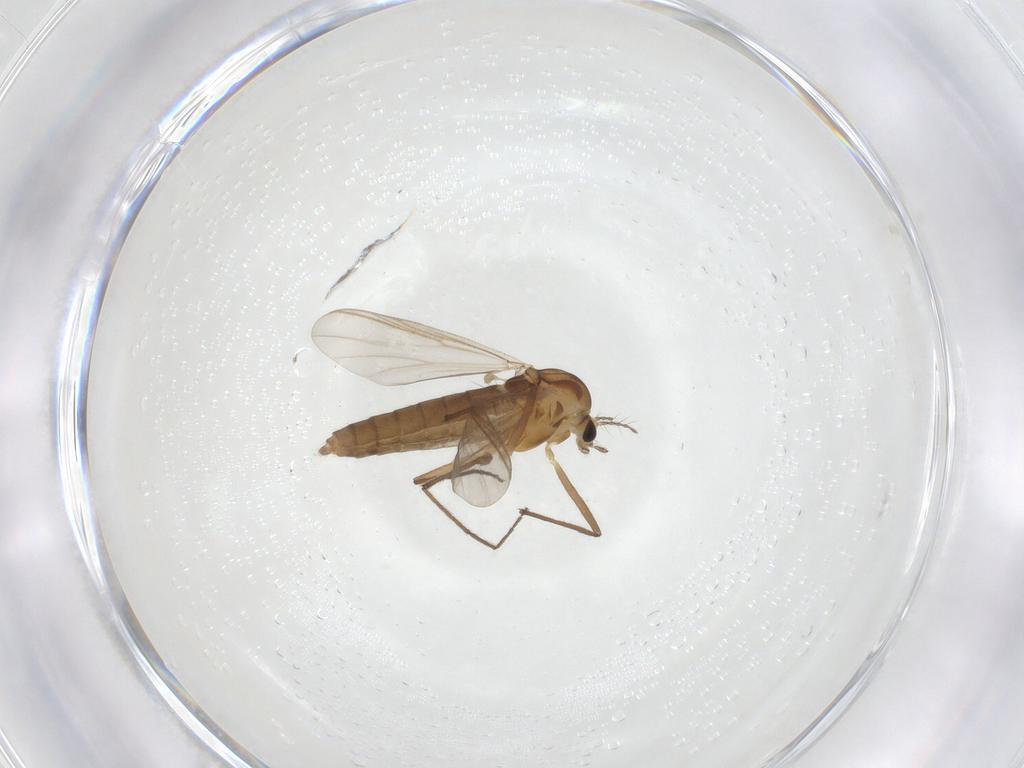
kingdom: Animalia
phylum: Arthropoda
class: Insecta
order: Diptera
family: Chironomidae
